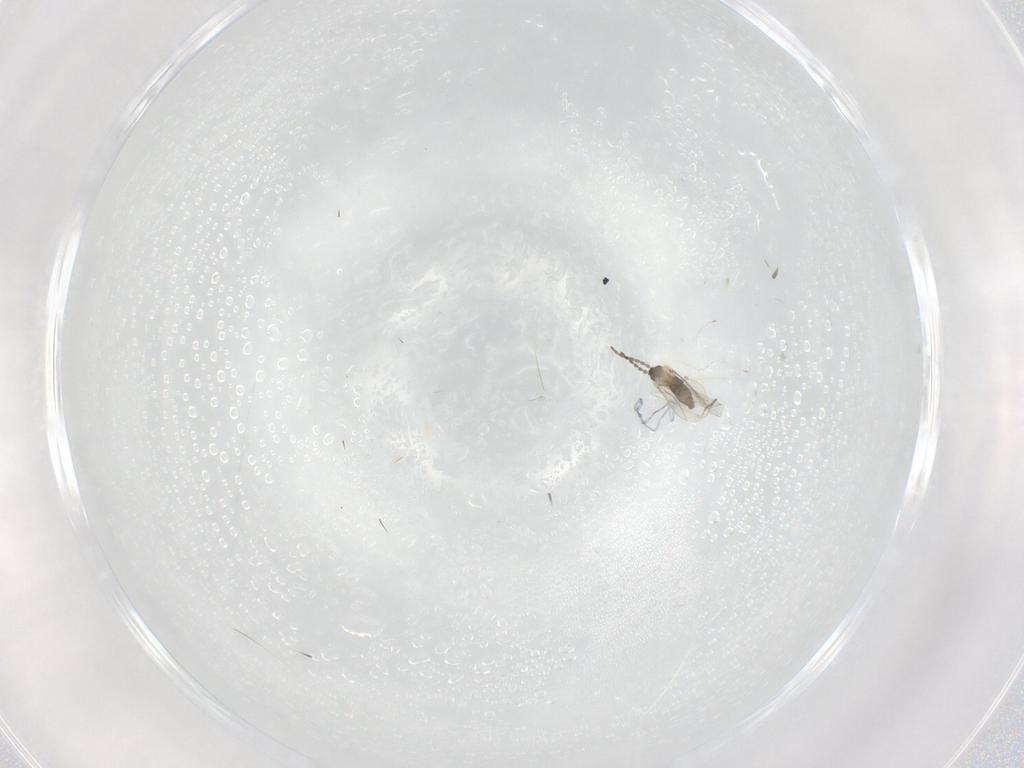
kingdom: Animalia
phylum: Arthropoda
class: Insecta
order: Diptera
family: Cecidomyiidae
